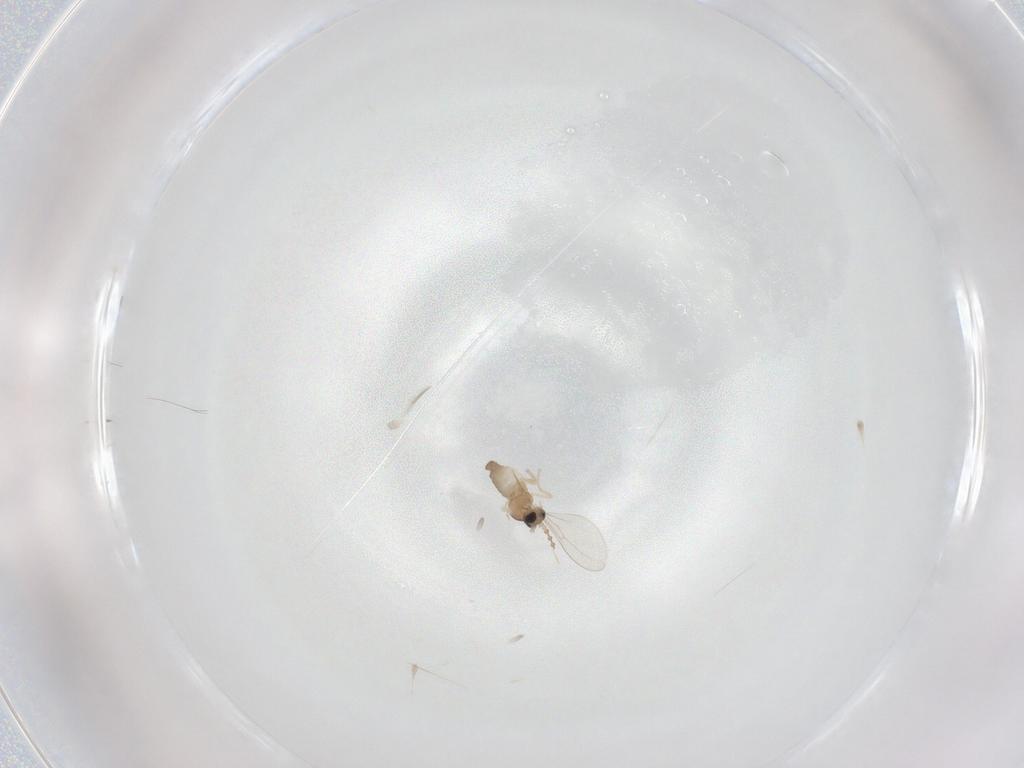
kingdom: Animalia
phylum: Arthropoda
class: Insecta
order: Diptera
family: Cecidomyiidae
